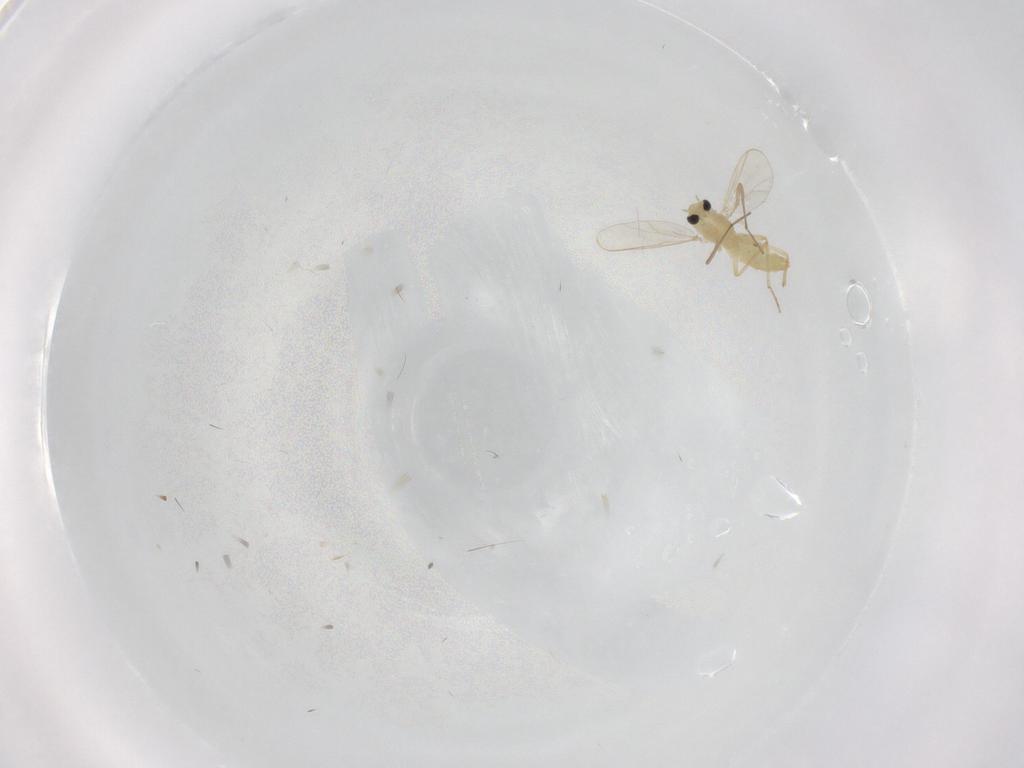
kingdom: Animalia
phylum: Arthropoda
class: Insecta
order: Diptera
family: Chironomidae
